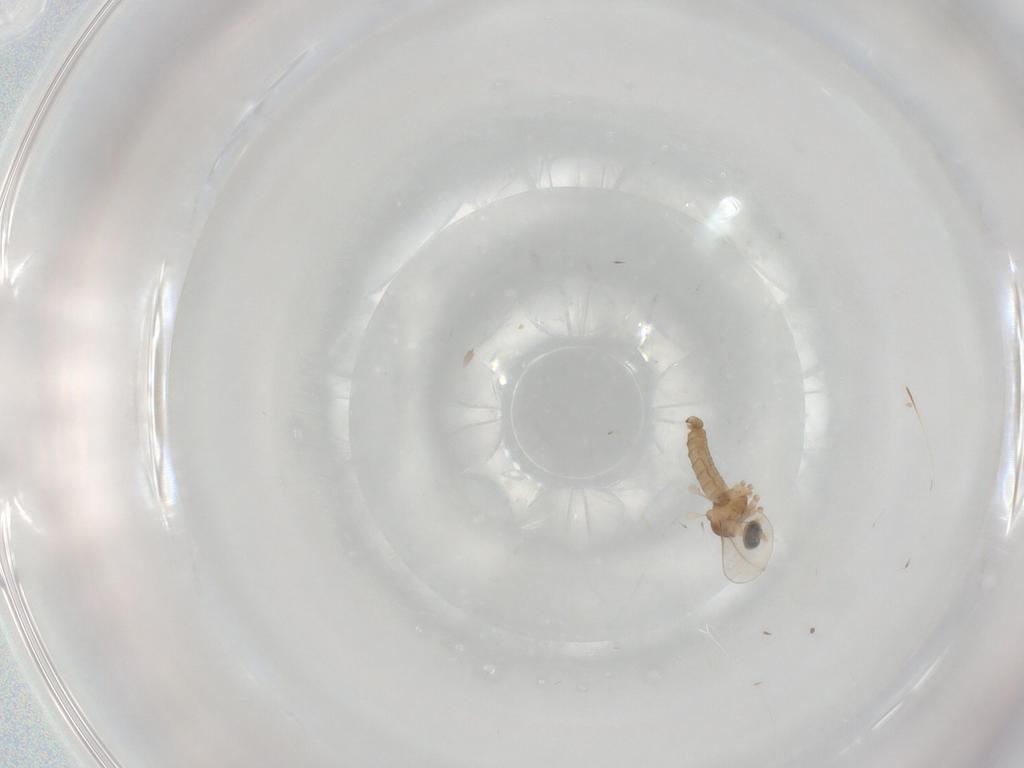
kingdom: Animalia
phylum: Arthropoda
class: Insecta
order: Diptera
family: Cecidomyiidae
